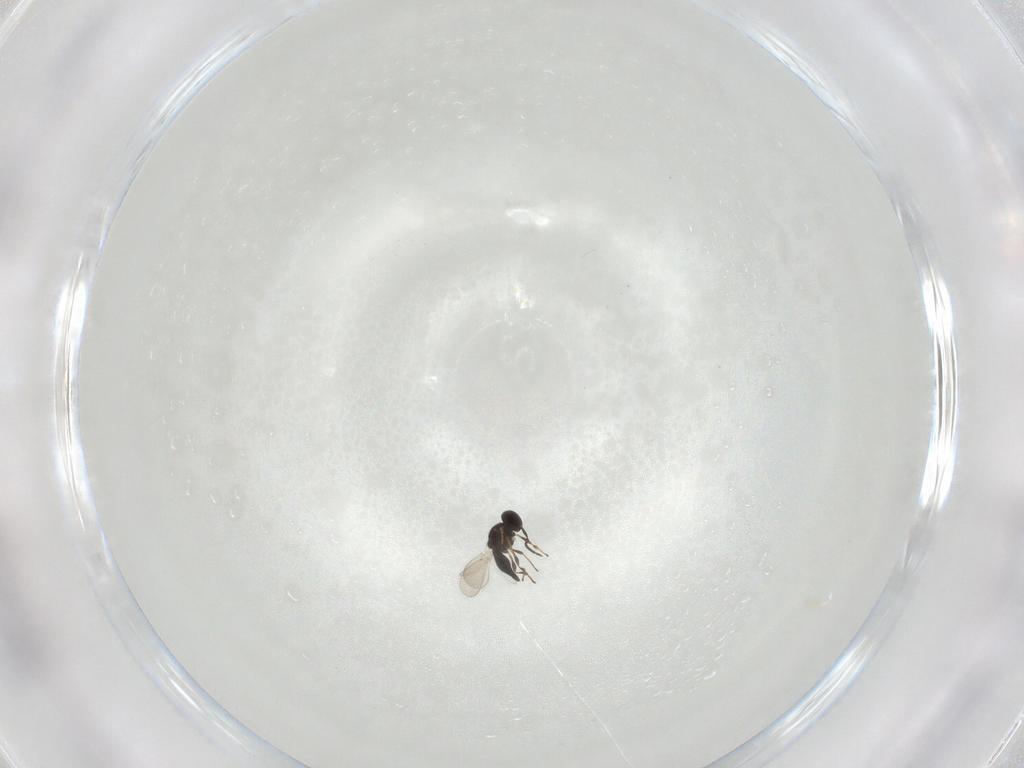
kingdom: Animalia
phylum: Arthropoda
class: Insecta
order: Hymenoptera
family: Platygastridae
